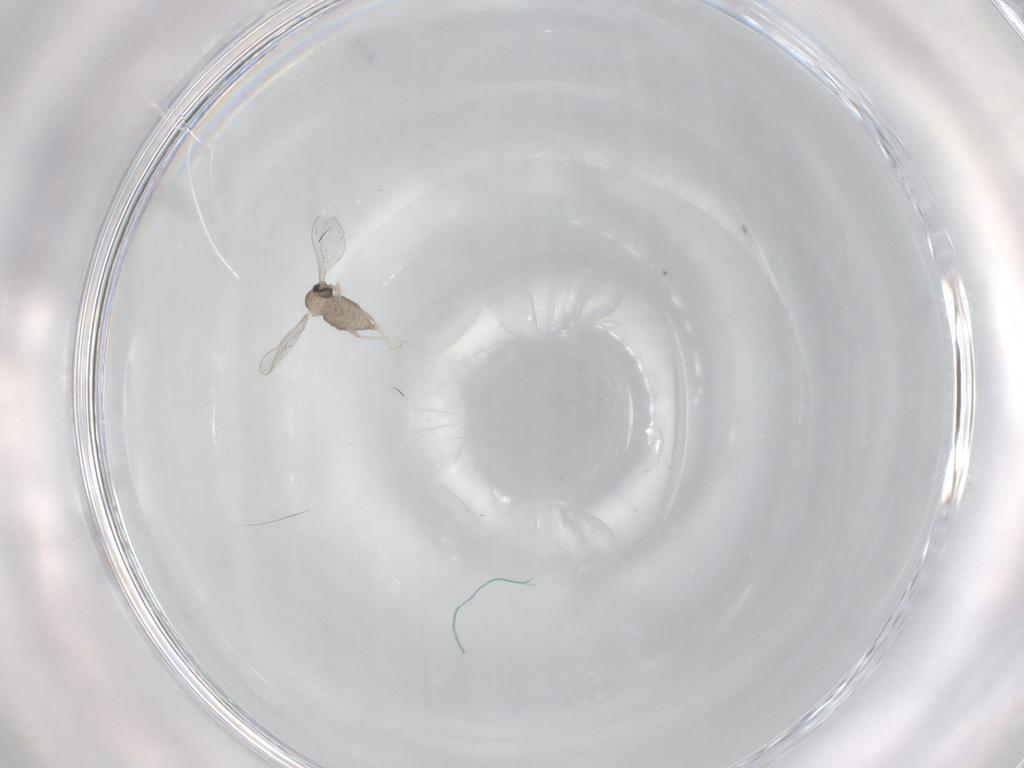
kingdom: Animalia
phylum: Arthropoda
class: Insecta
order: Diptera
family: Cecidomyiidae
